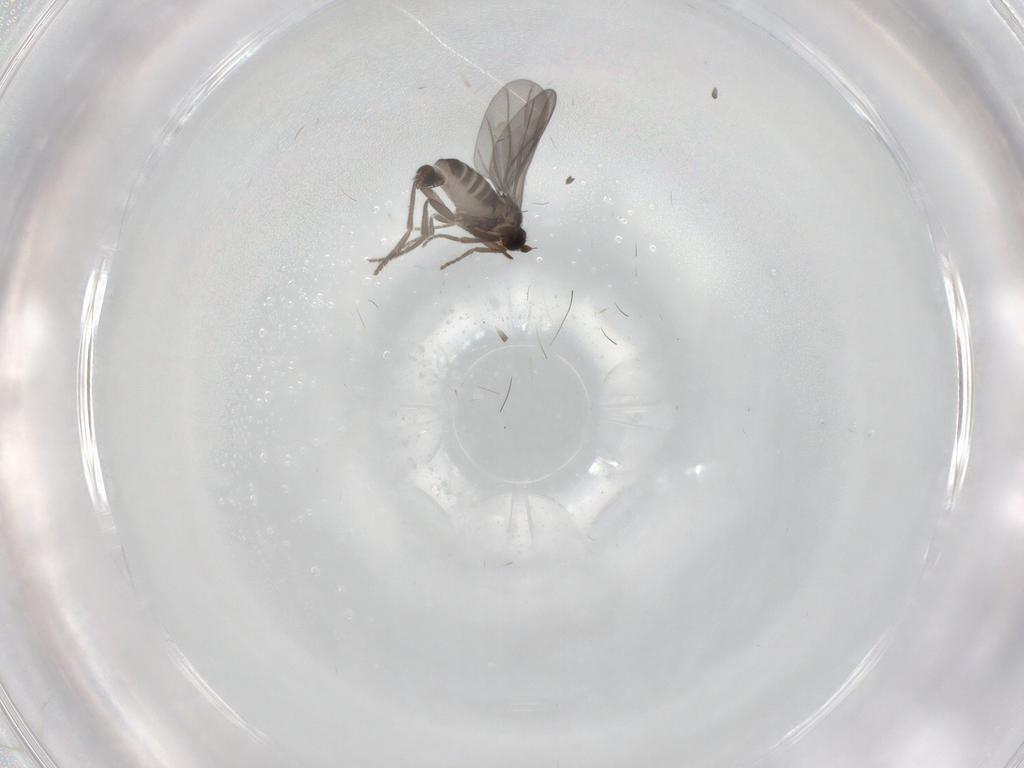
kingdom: Animalia
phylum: Arthropoda
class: Insecta
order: Diptera
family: Phoridae
